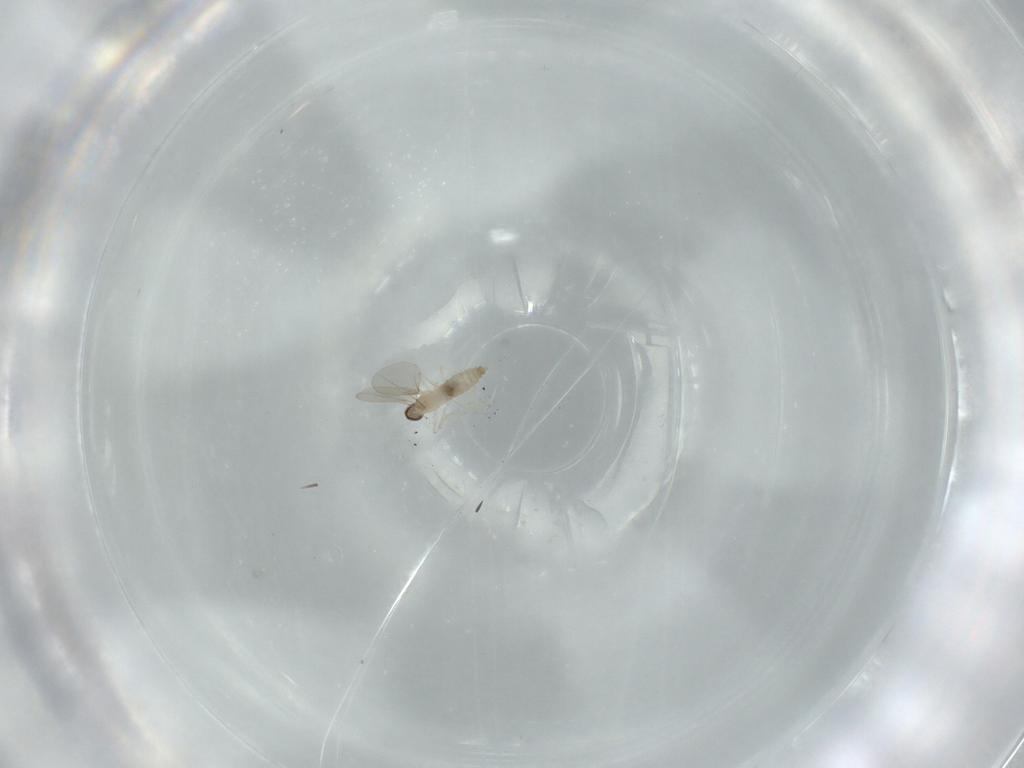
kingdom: Animalia
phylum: Arthropoda
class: Insecta
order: Diptera
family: Cecidomyiidae
